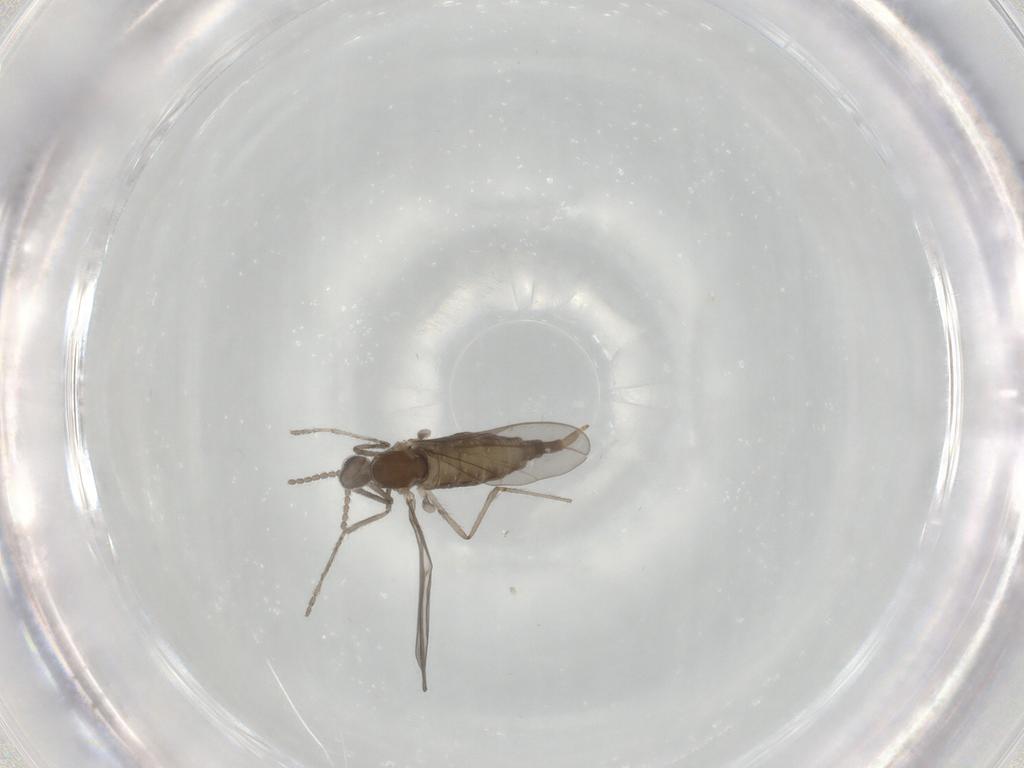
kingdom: Animalia
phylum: Arthropoda
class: Insecta
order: Diptera
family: Cecidomyiidae
